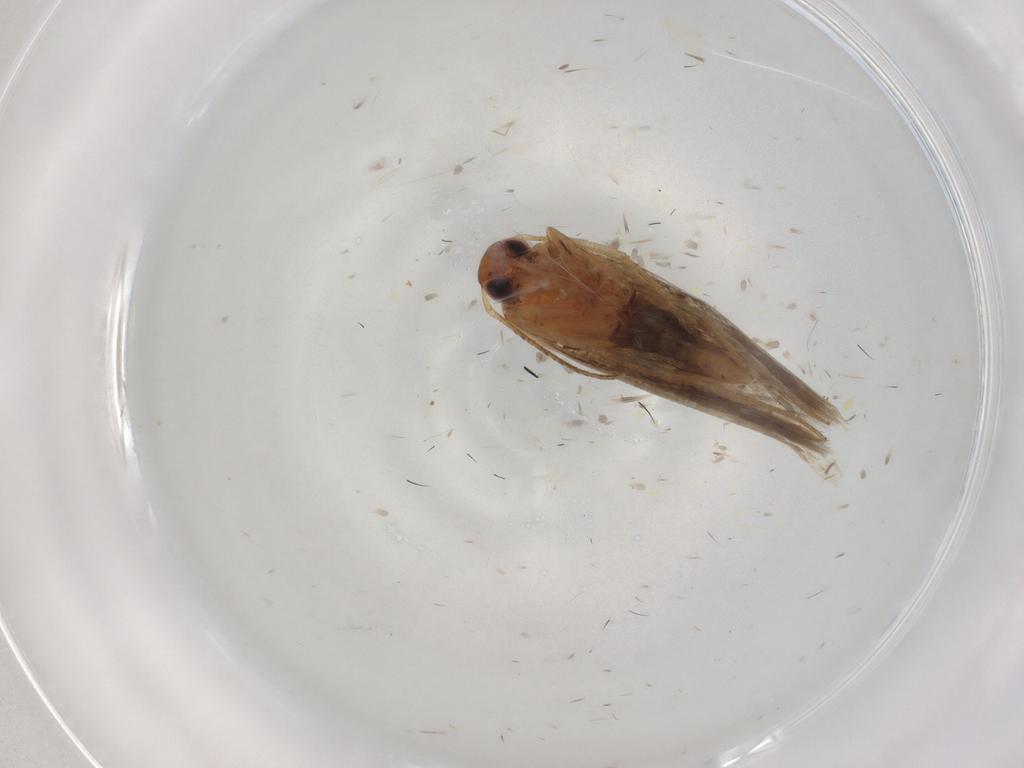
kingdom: Animalia
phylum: Arthropoda
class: Insecta
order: Lepidoptera
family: Gelechiidae
